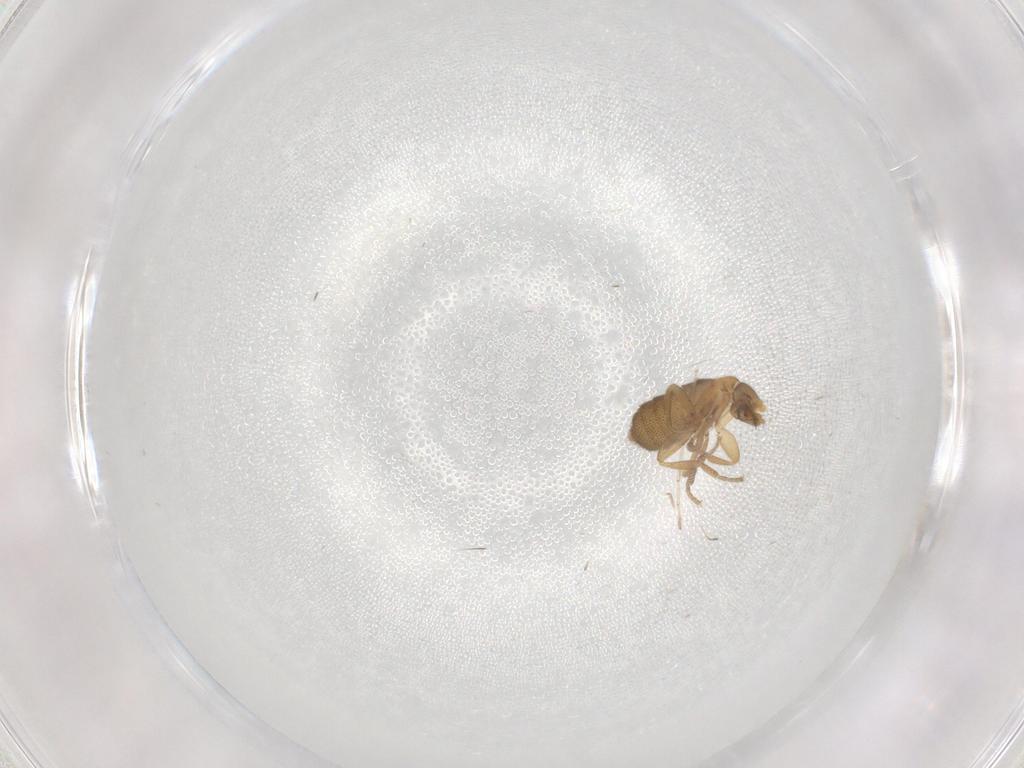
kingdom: Animalia
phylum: Arthropoda
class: Insecta
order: Diptera
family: Phoridae
